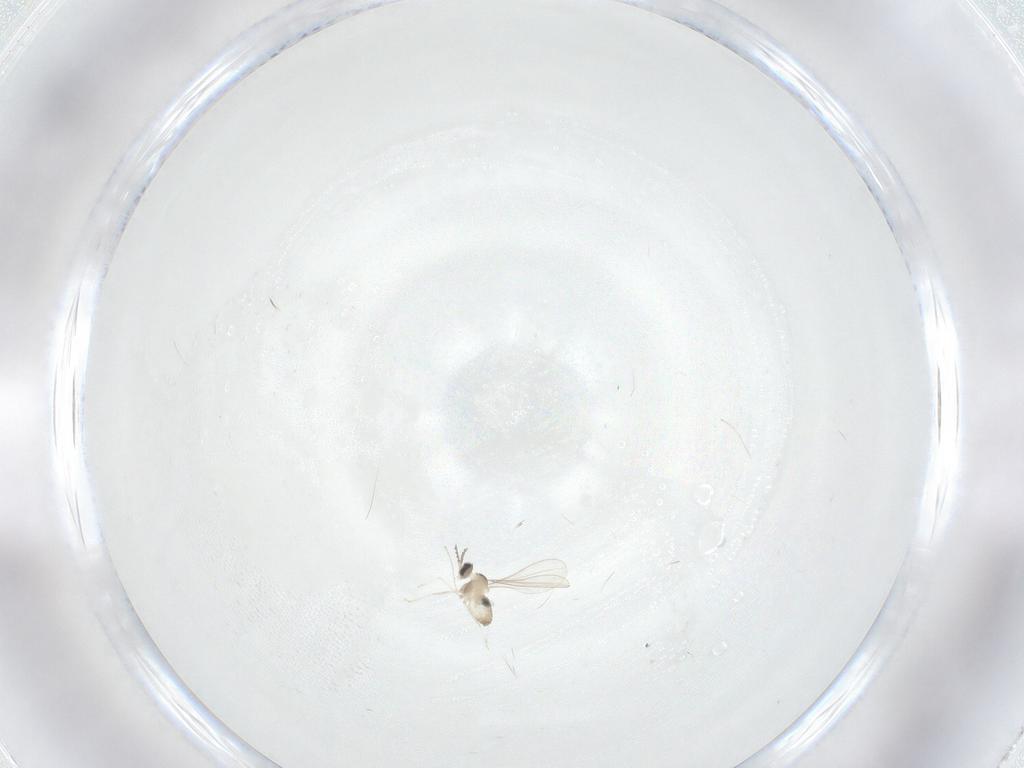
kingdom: Animalia
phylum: Arthropoda
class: Insecta
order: Diptera
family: Cecidomyiidae
